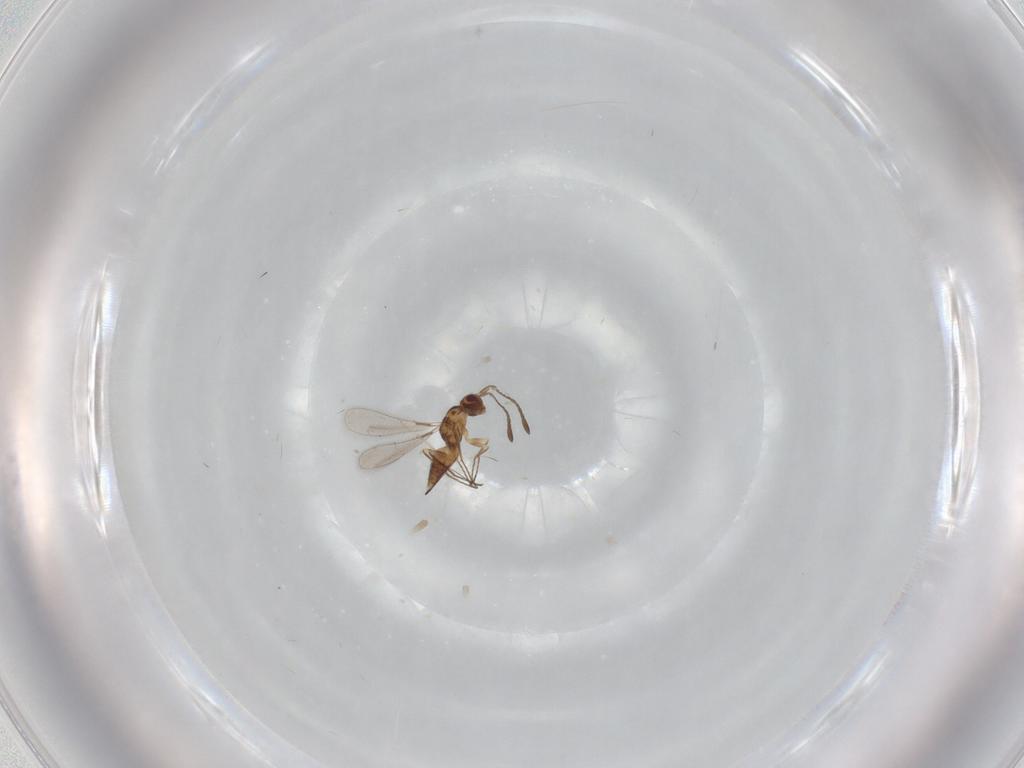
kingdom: Animalia
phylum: Arthropoda
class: Insecta
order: Hymenoptera
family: Mymaridae
